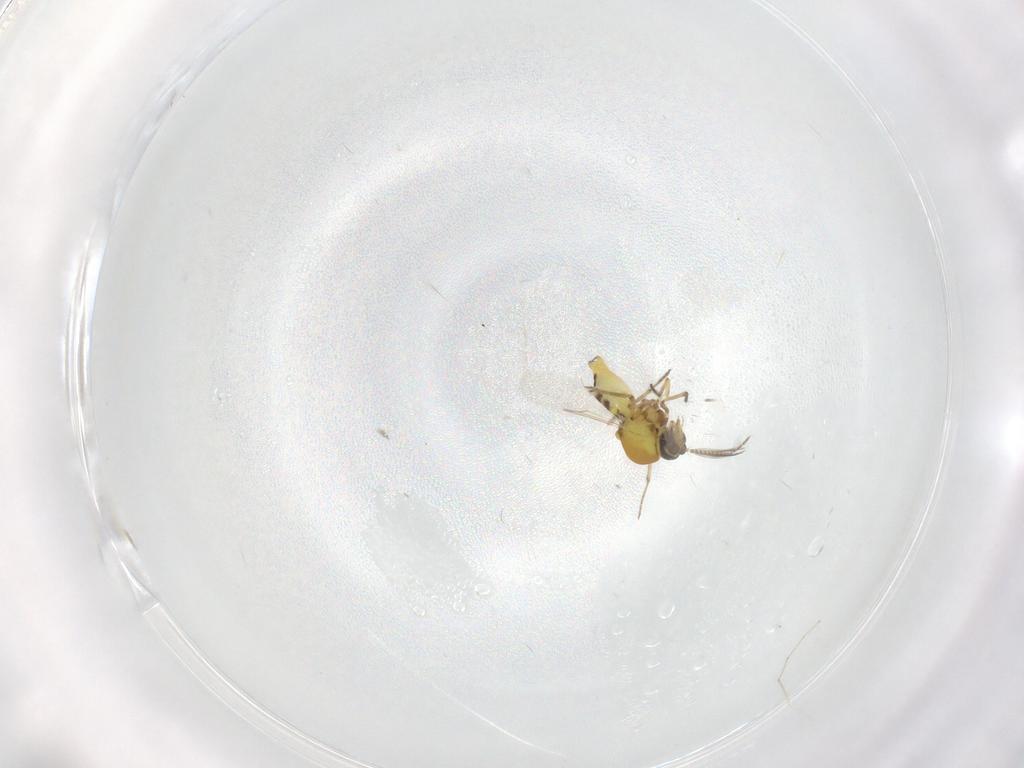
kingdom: Animalia
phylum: Arthropoda
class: Insecta
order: Diptera
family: Ceratopogonidae
